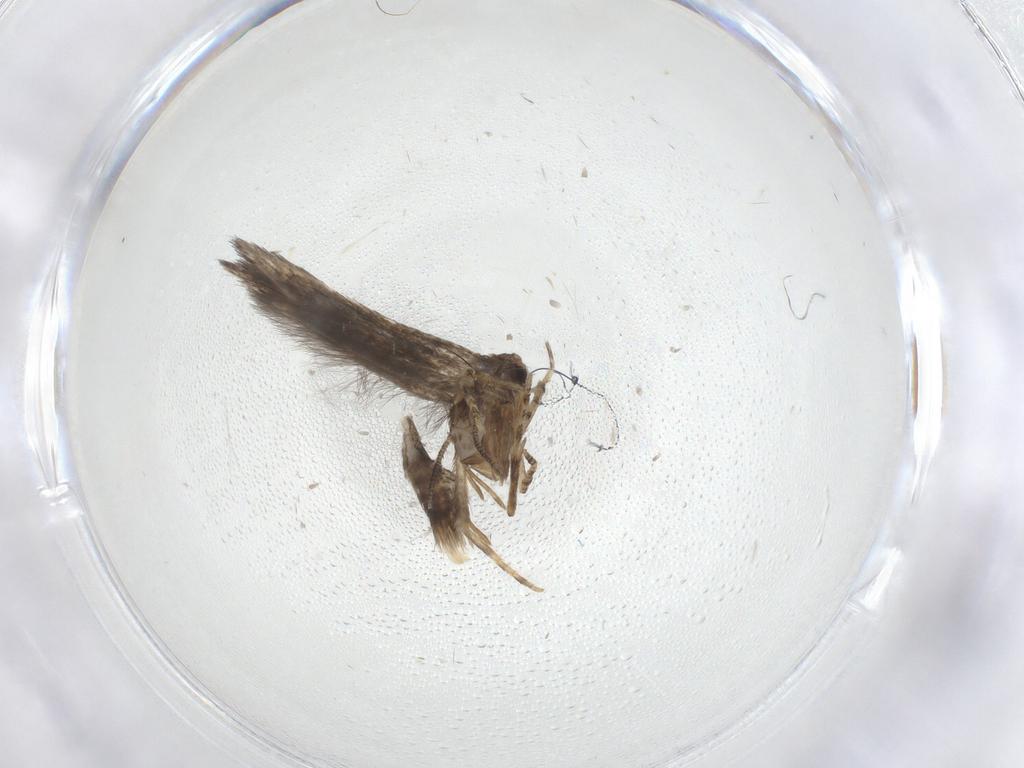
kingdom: Animalia
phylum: Arthropoda
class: Insecta
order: Lepidoptera
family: Elachistidae
